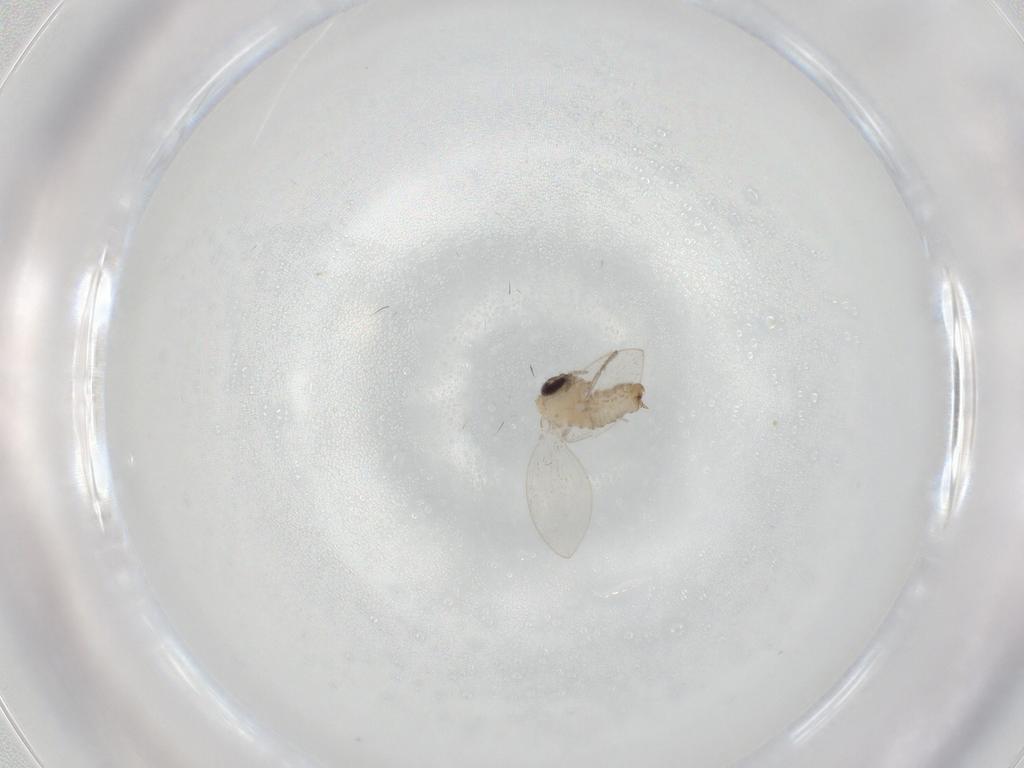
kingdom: Animalia
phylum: Arthropoda
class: Insecta
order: Diptera
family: Psychodidae
